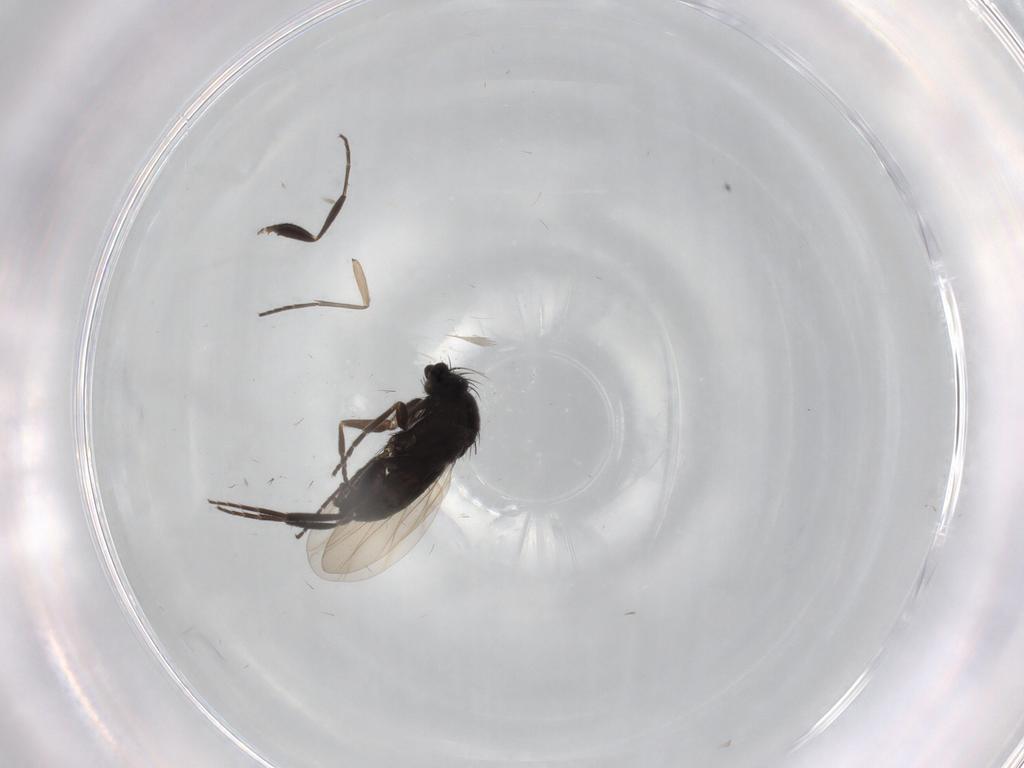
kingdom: Animalia
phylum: Arthropoda
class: Insecta
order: Diptera
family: Phoridae
